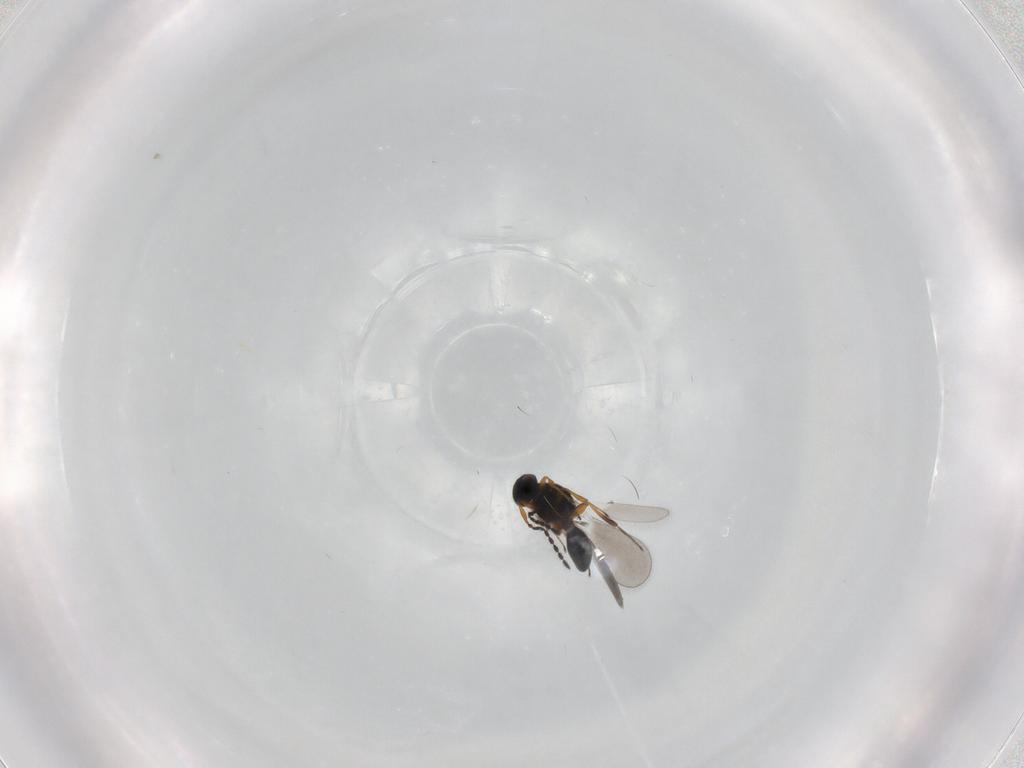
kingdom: Animalia
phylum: Arthropoda
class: Insecta
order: Hymenoptera
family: Platygastridae
